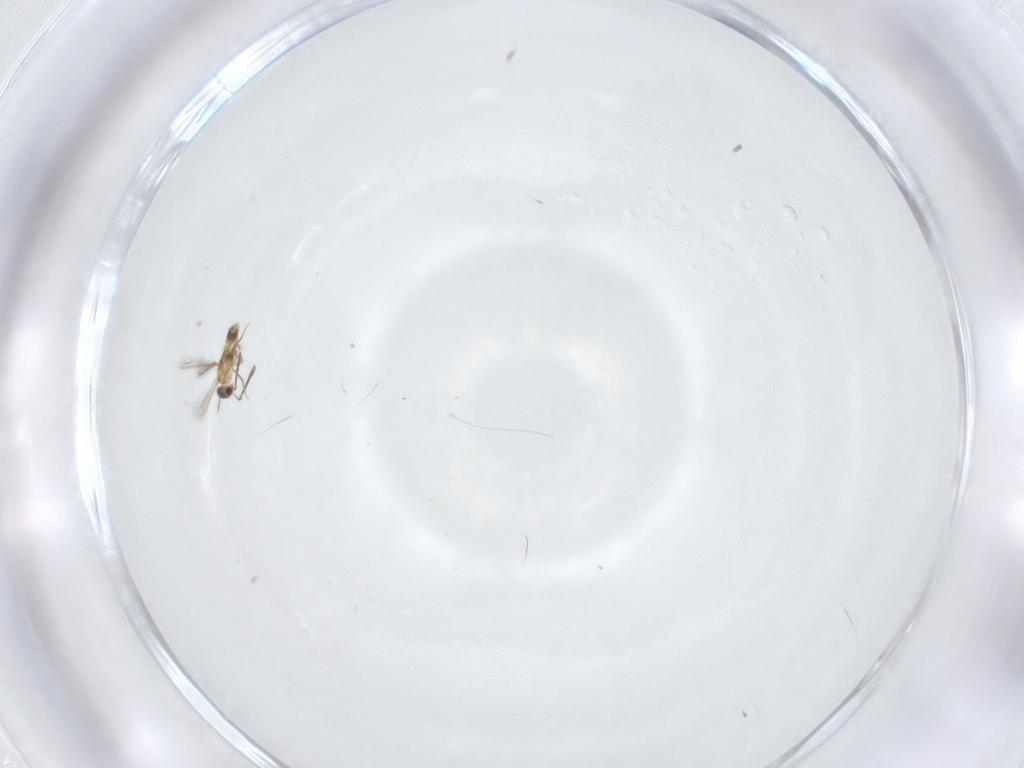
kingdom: Animalia
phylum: Arthropoda
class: Insecta
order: Hymenoptera
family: Mymaridae
